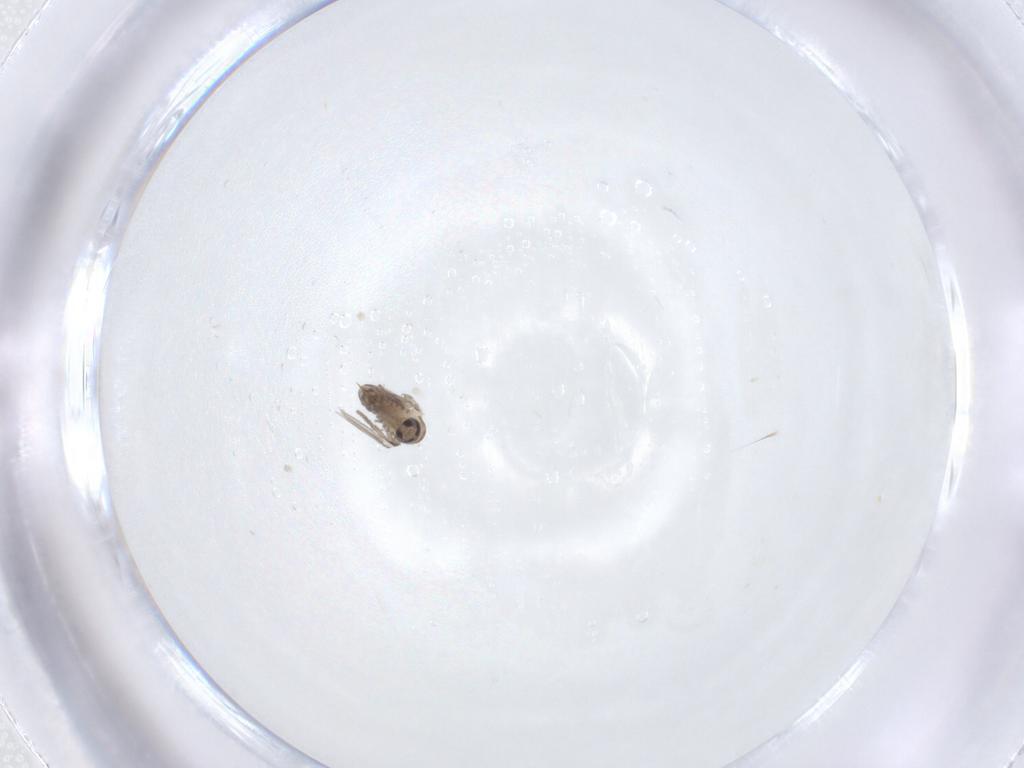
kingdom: Animalia
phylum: Arthropoda
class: Insecta
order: Diptera
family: Psychodidae
